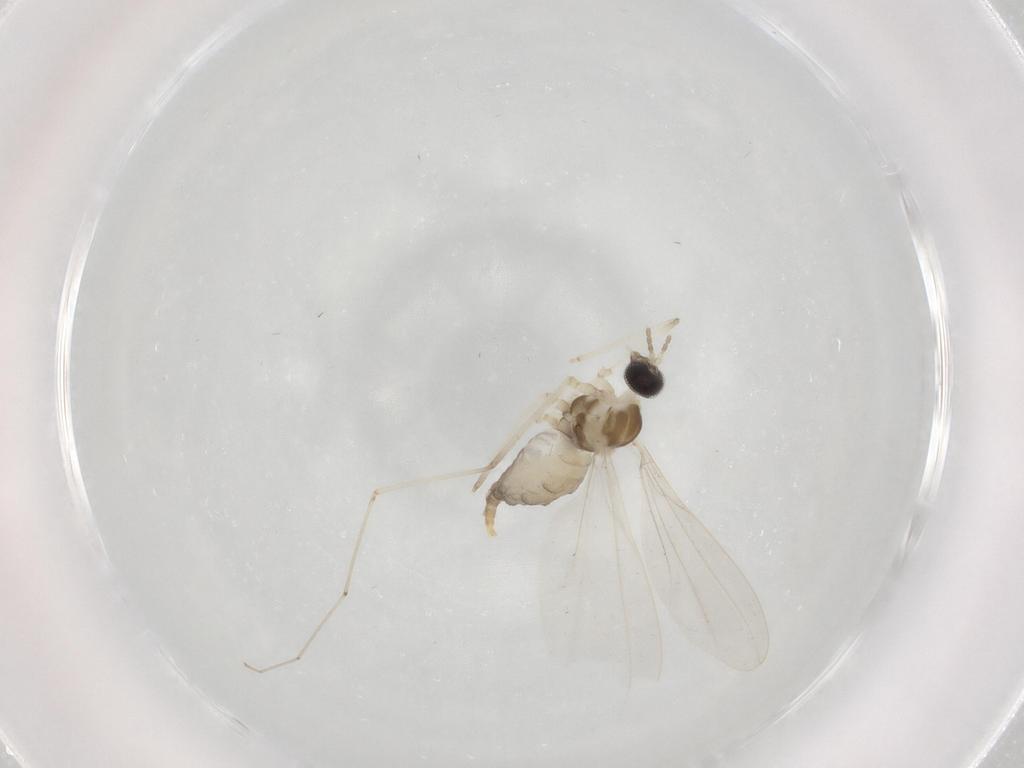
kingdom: Animalia
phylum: Arthropoda
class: Insecta
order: Diptera
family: Cecidomyiidae
